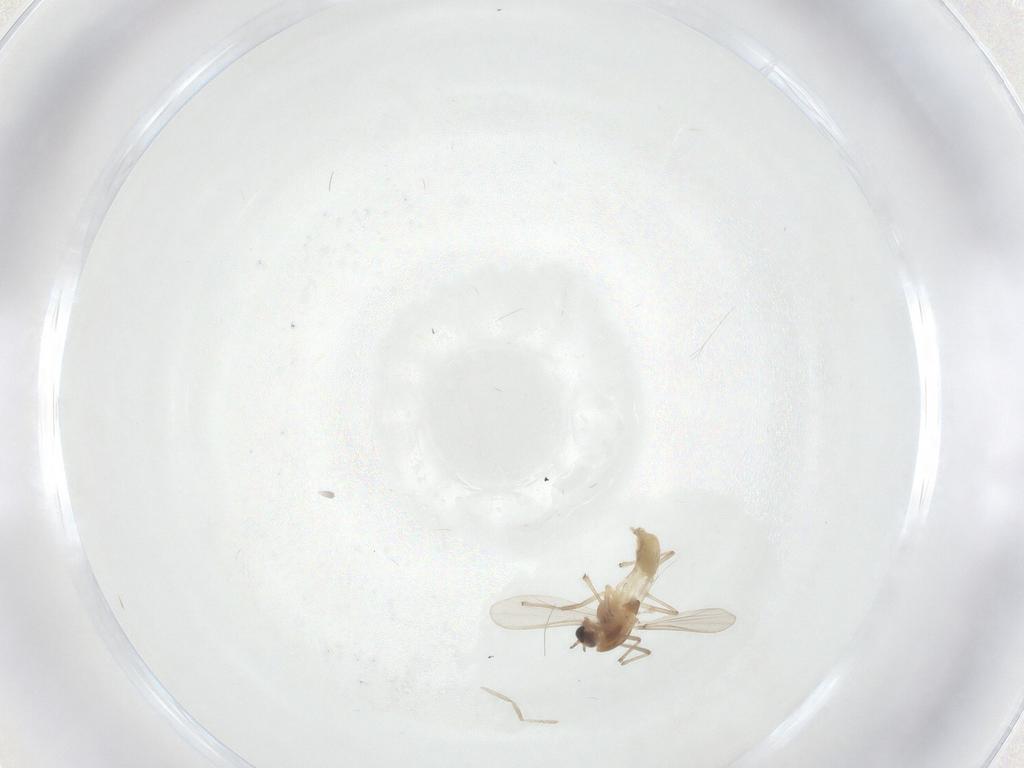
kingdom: Animalia
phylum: Arthropoda
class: Insecta
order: Diptera
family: Chironomidae
